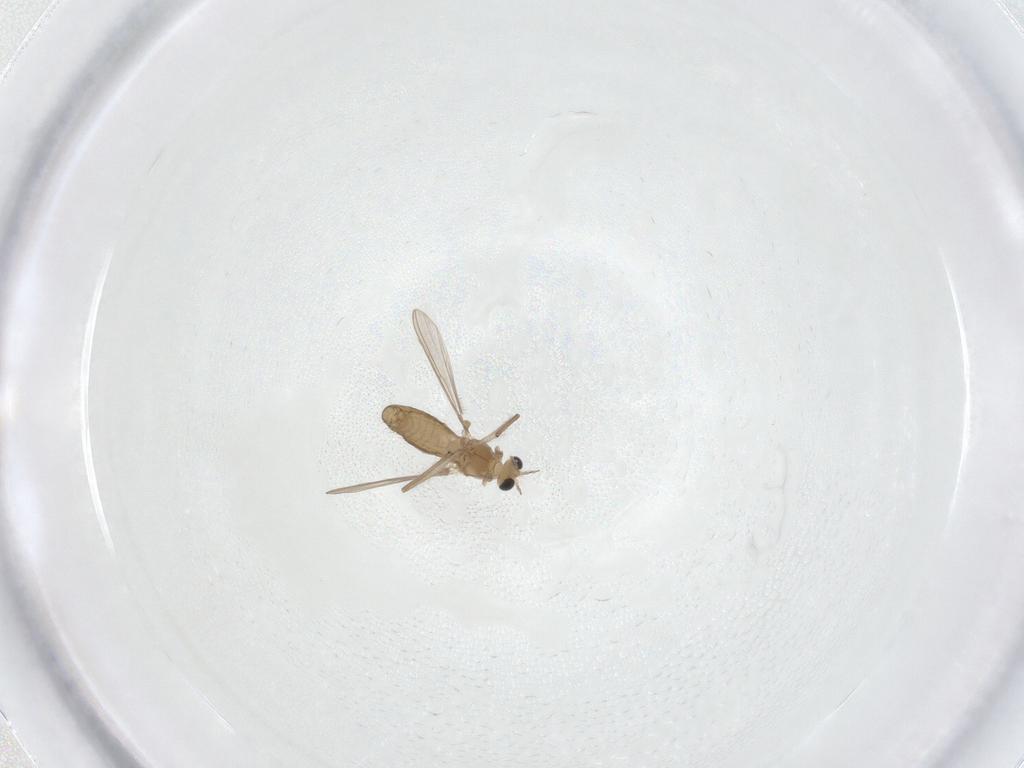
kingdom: Animalia
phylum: Arthropoda
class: Insecta
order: Diptera
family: Chironomidae
